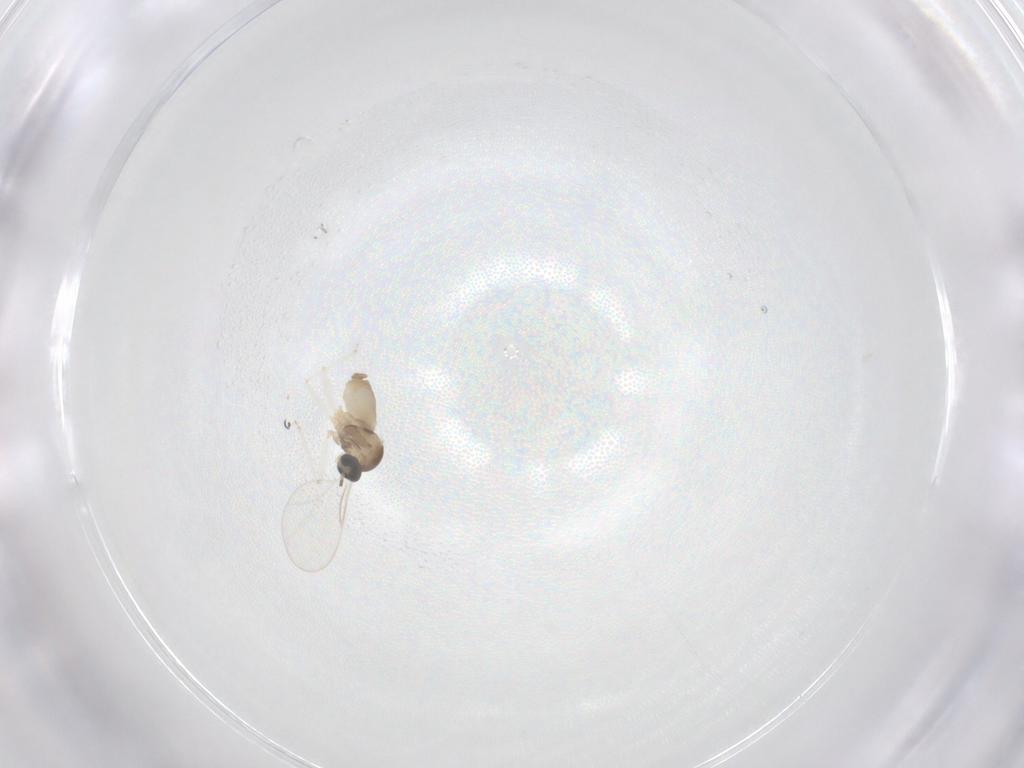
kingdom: Animalia
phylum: Arthropoda
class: Insecta
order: Diptera
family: Cecidomyiidae
